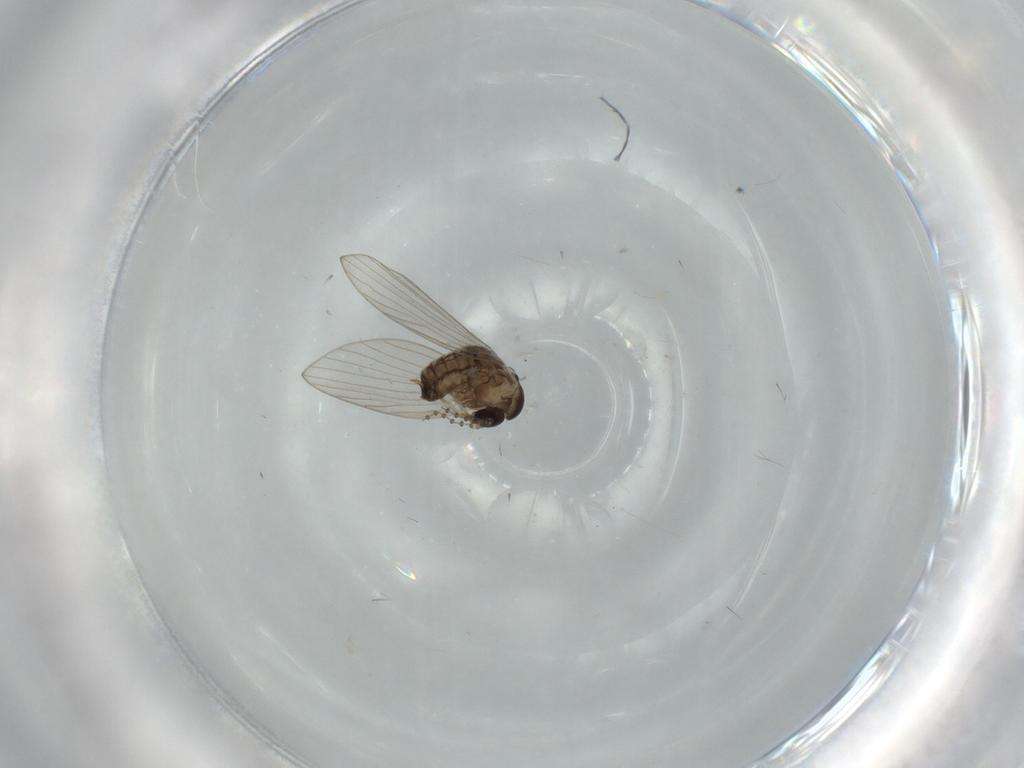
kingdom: Animalia
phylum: Arthropoda
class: Insecta
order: Diptera
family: Psychodidae
